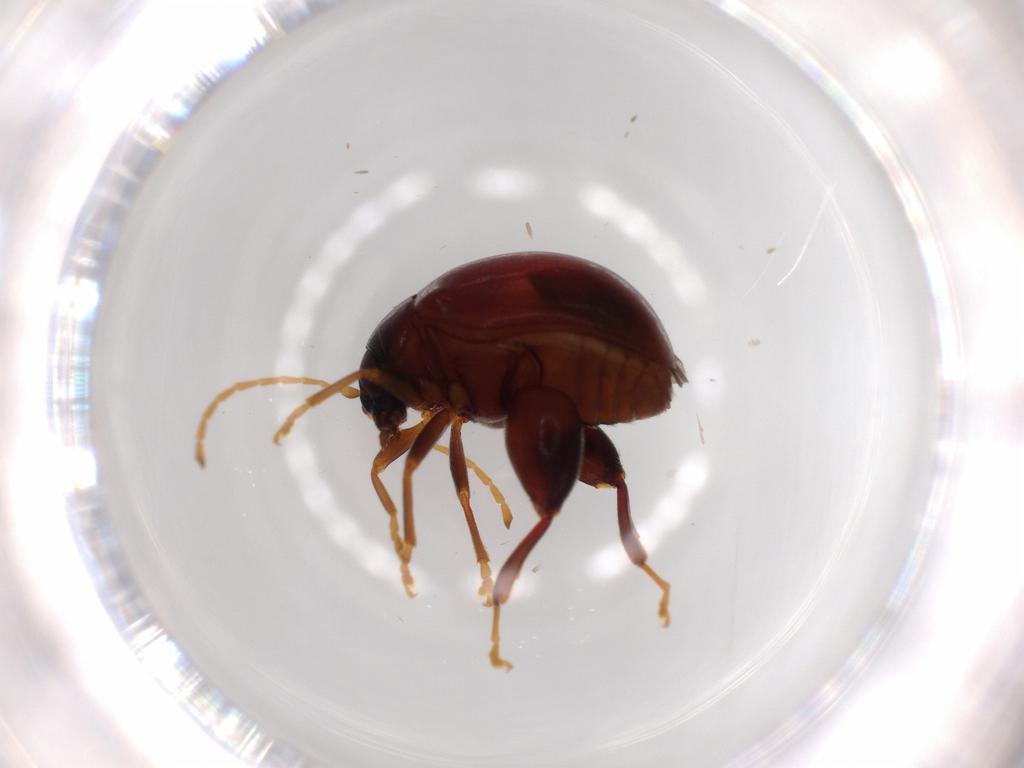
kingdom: Animalia
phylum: Arthropoda
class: Insecta
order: Coleoptera
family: Chrysomelidae
